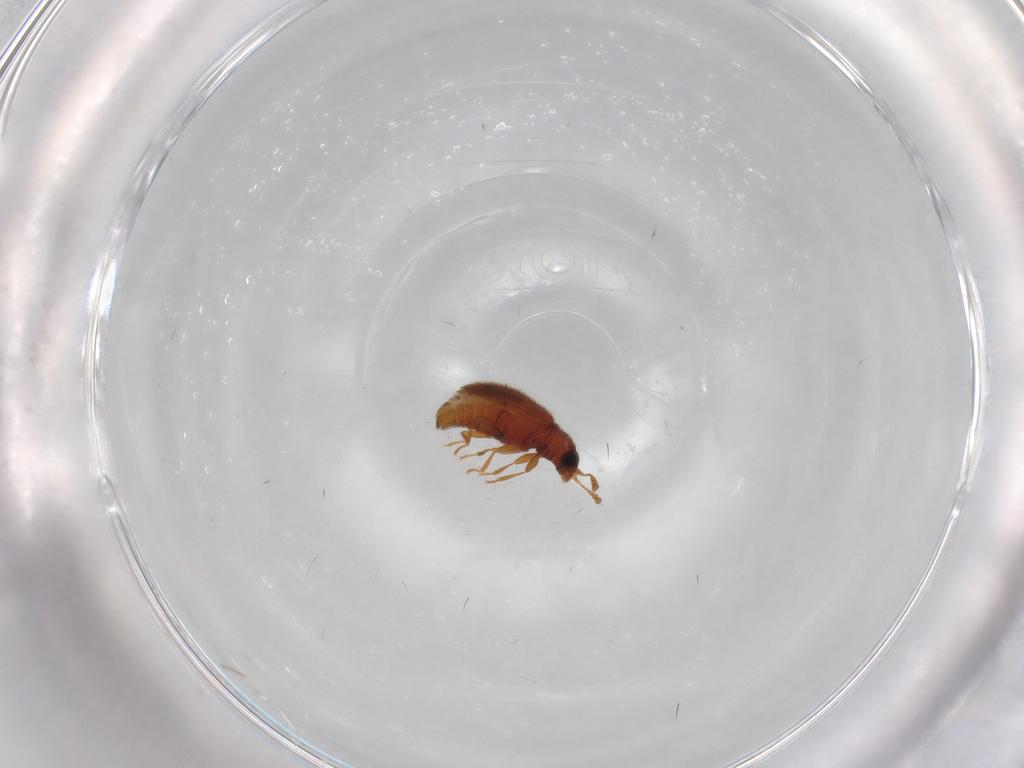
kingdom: Animalia
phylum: Arthropoda
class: Insecta
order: Coleoptera
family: Latridiidae
